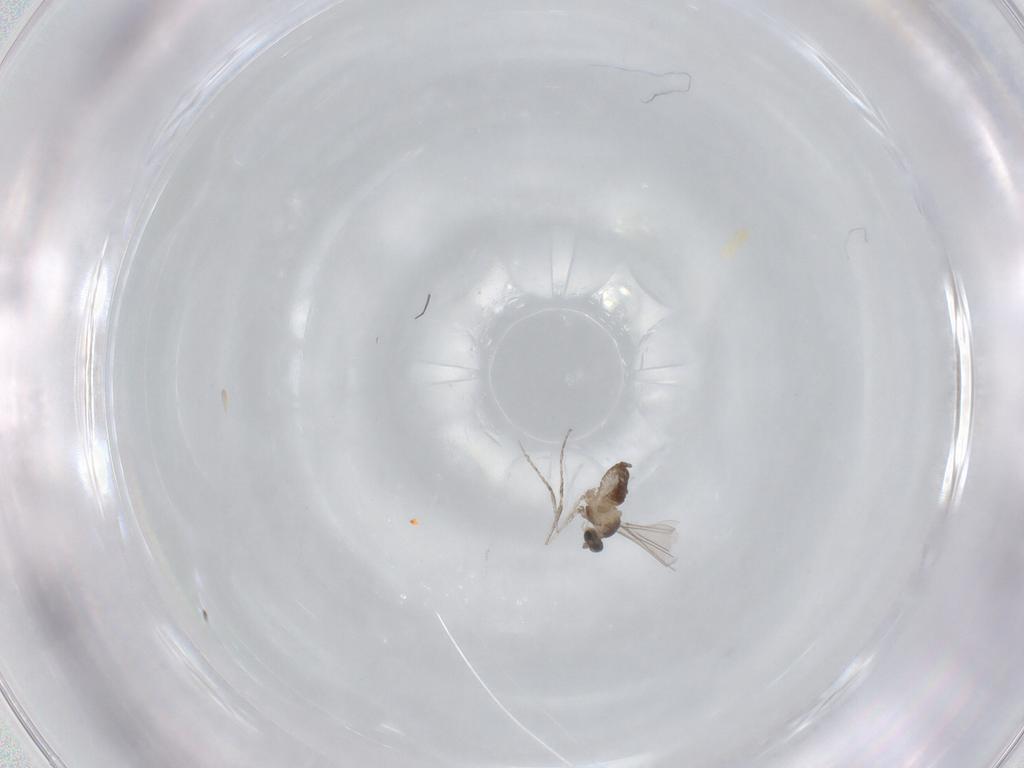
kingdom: Animalia
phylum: Arthropoda
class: Insecta
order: Diptera
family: Cecidomyiidae
